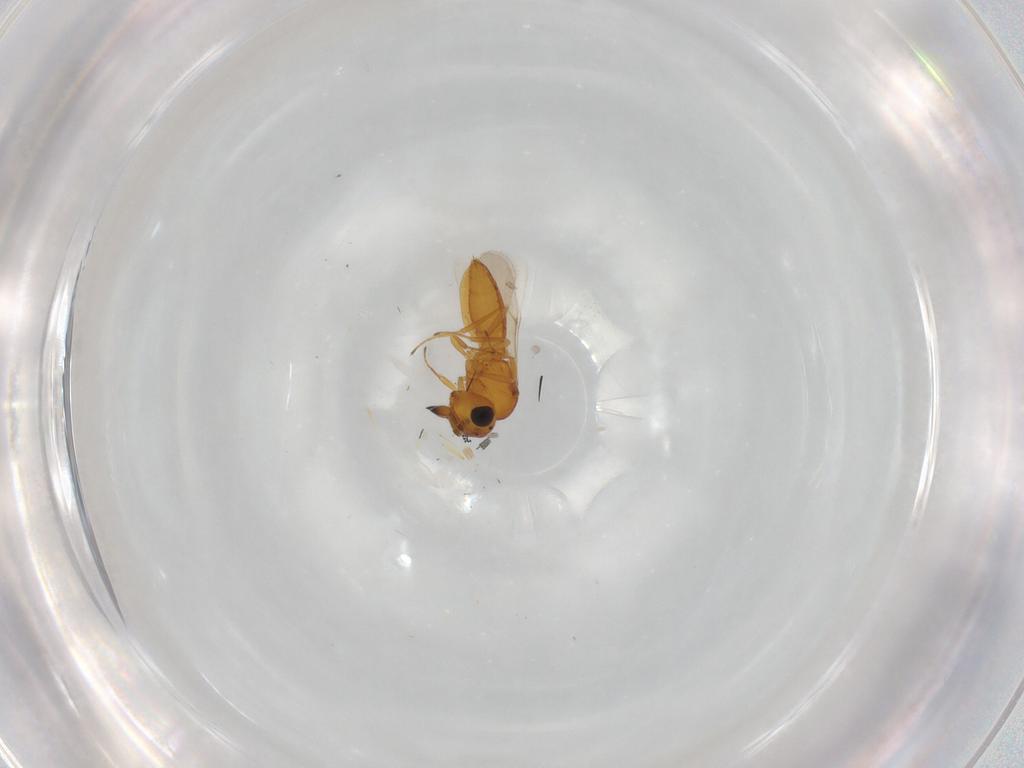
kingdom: Animalia
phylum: Arthropoda
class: Insecta
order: Hymenoptera
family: Scelionidae
